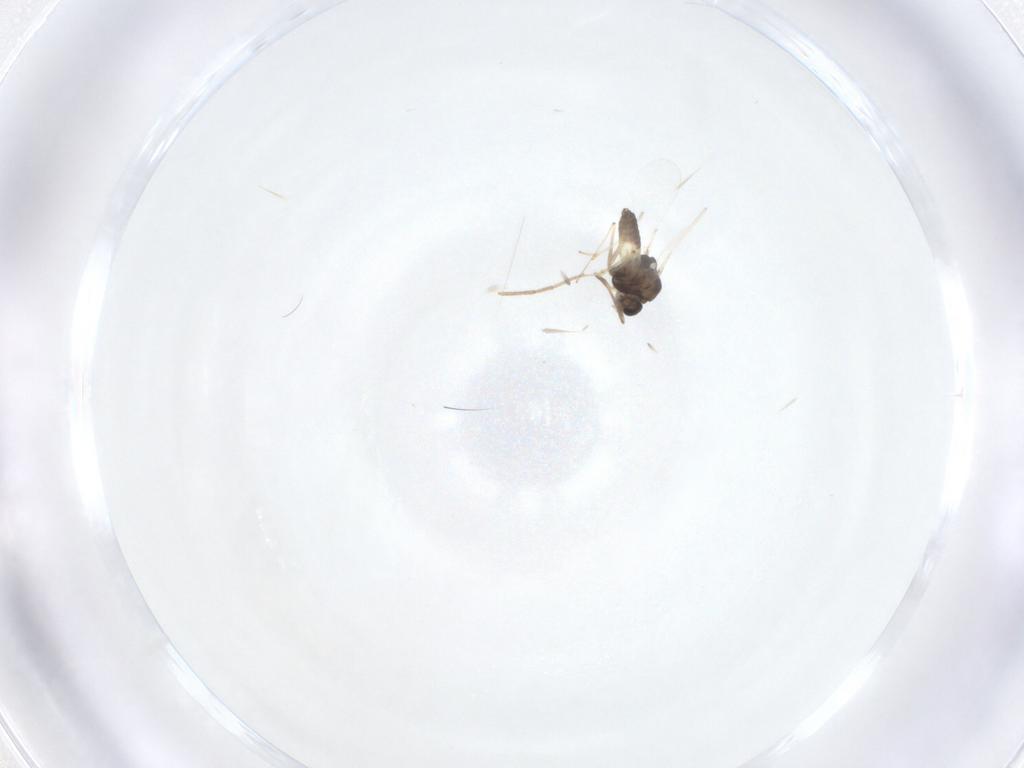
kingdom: Animalia
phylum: Arthropoda
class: Insecta
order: Diptera
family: Chironomidae
